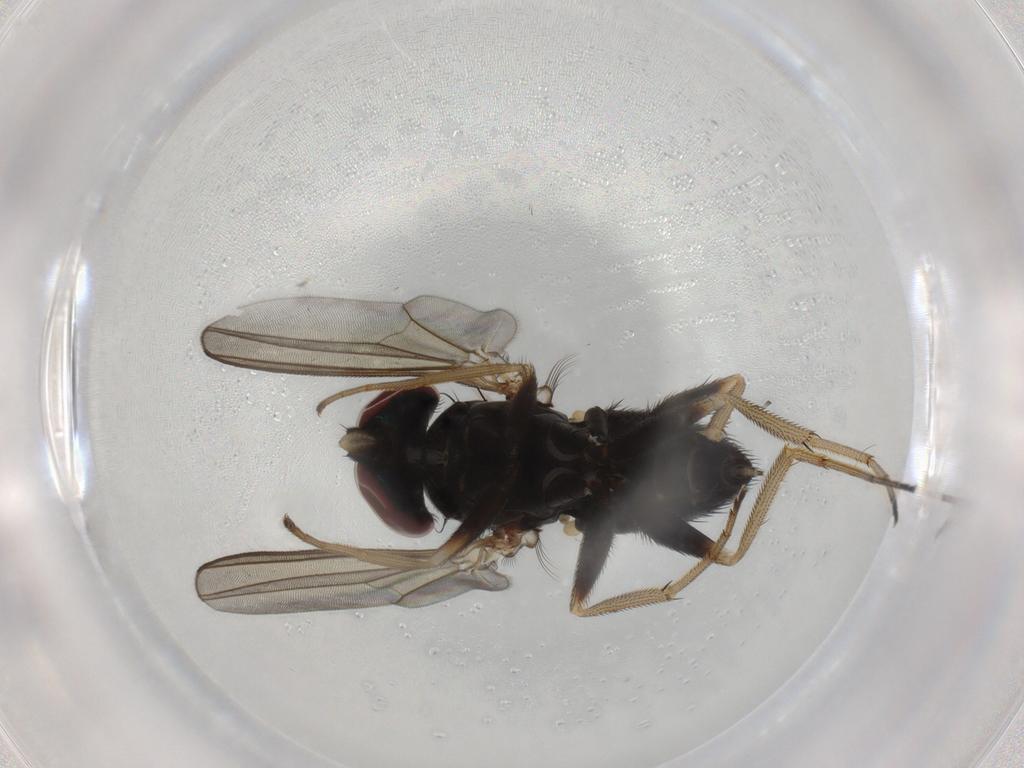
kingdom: Animalia
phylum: Arthropoda
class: Insecta
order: Diptera
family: Dolichopodidae
